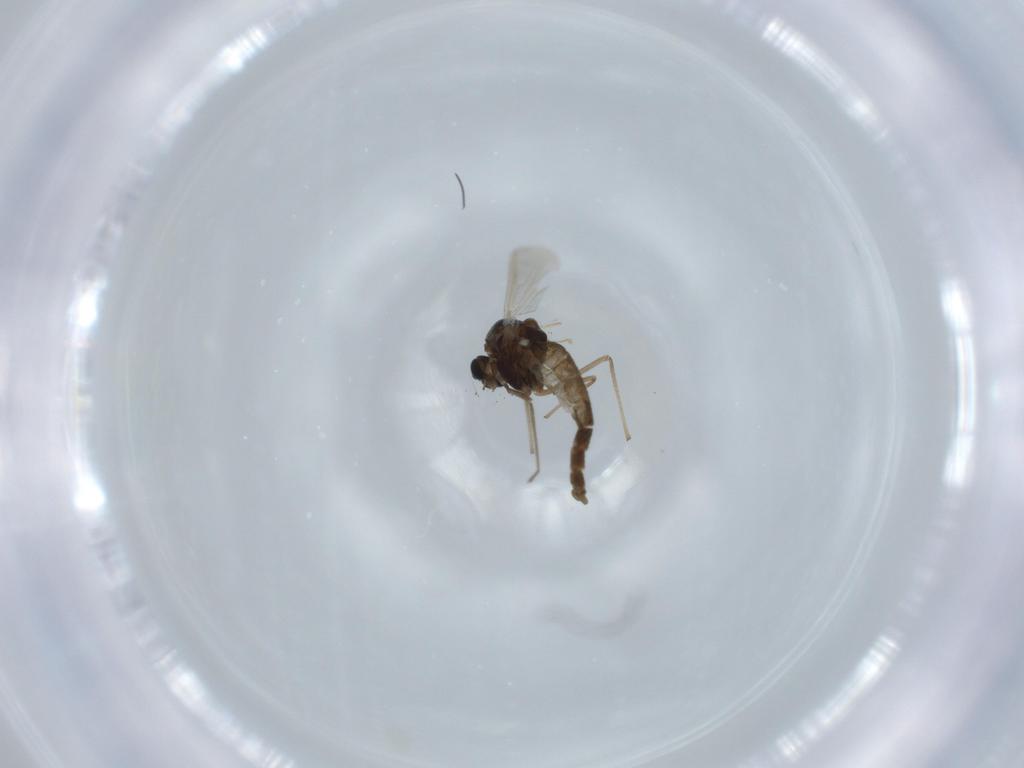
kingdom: Animalia
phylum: Arthropoda
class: Insecta
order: Diptera
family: Chironomidae
